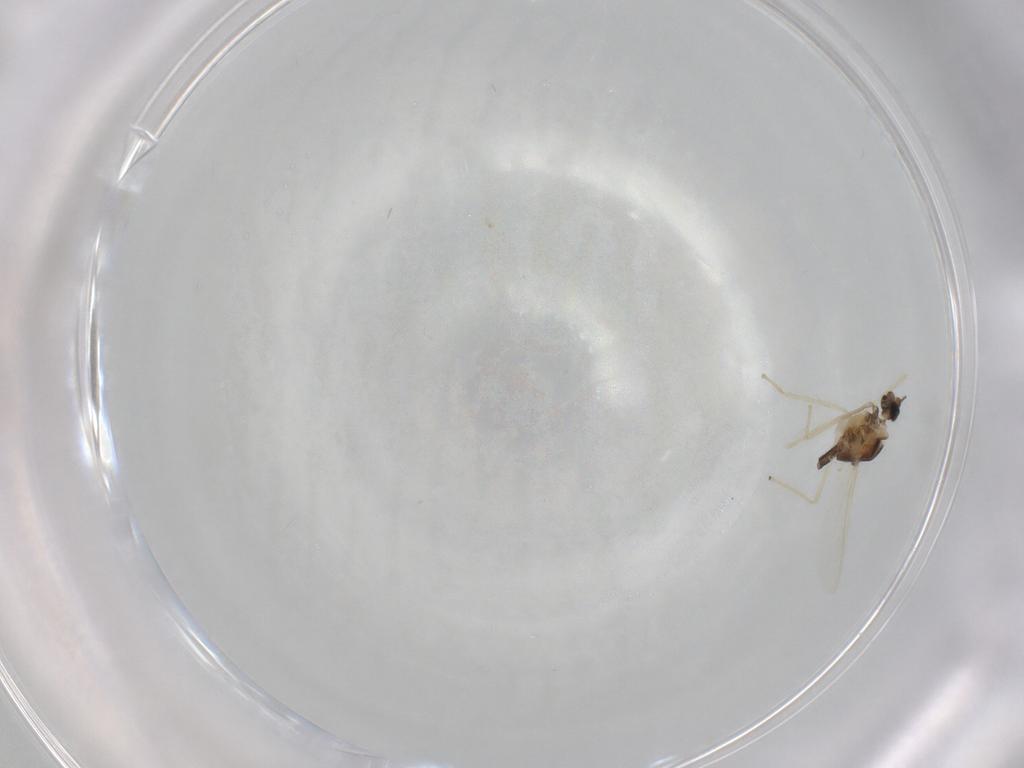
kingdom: Animalia
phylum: Arthropoda
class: Insecta
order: Diptera
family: Chironomidae
